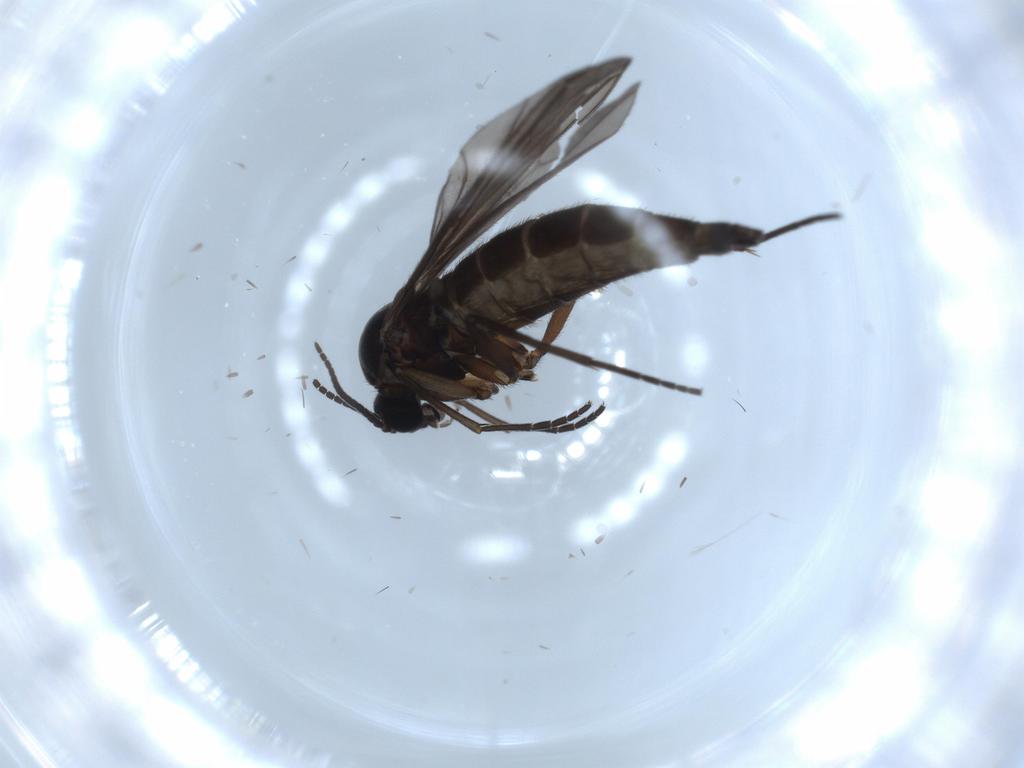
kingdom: Animalia
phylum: Arthropoda
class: Insecta
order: Diptera
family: Sciaridae
